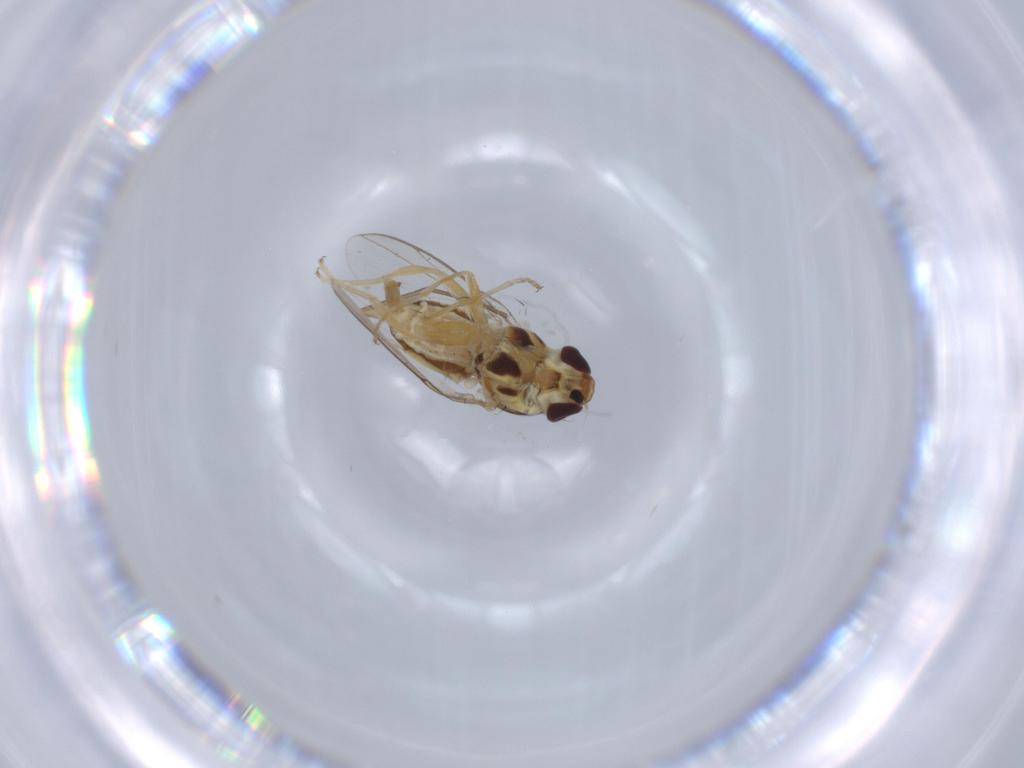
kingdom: Animalia
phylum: Arthropoda
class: Insecta
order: Diptera
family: Chloropidae
